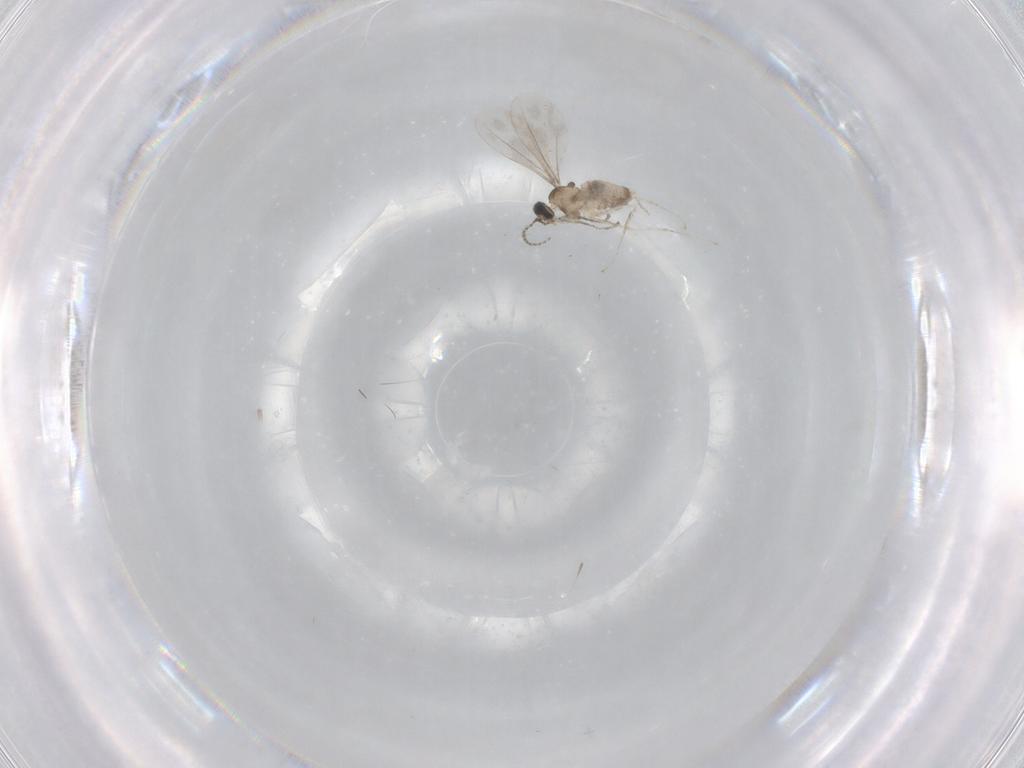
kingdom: Animalia
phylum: Arthropoda
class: Insecta
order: Diptera
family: Cecidomyiidae
